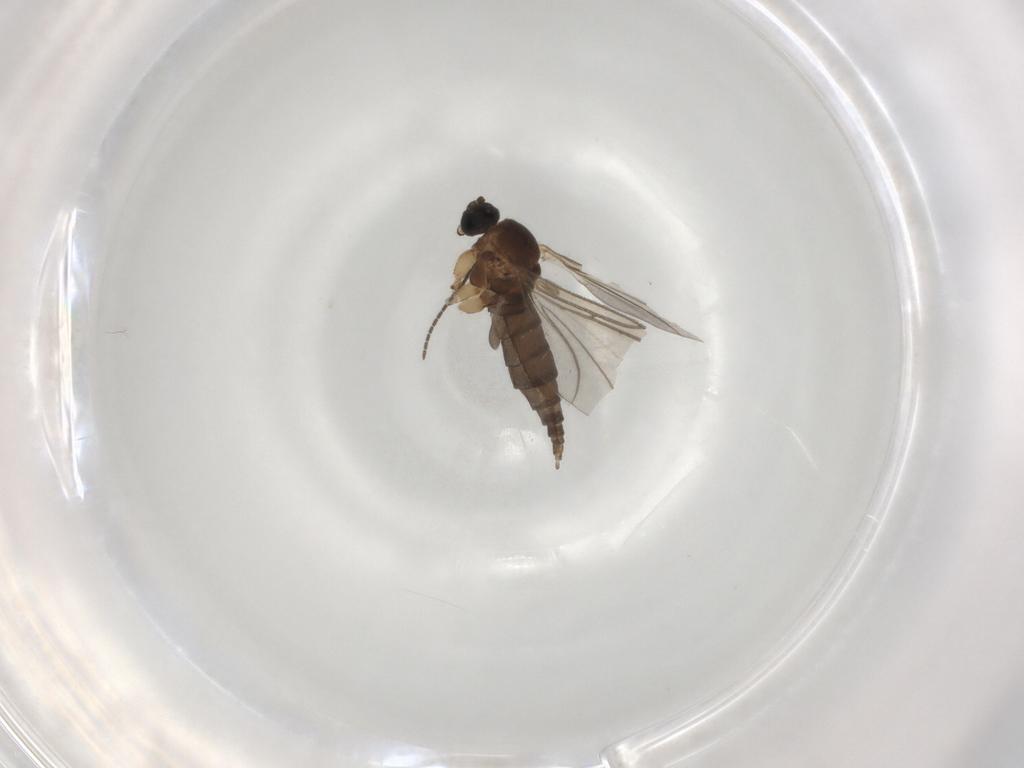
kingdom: Animalia
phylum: Arthropoda
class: Insecta
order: Diptera
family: Sciaridae
